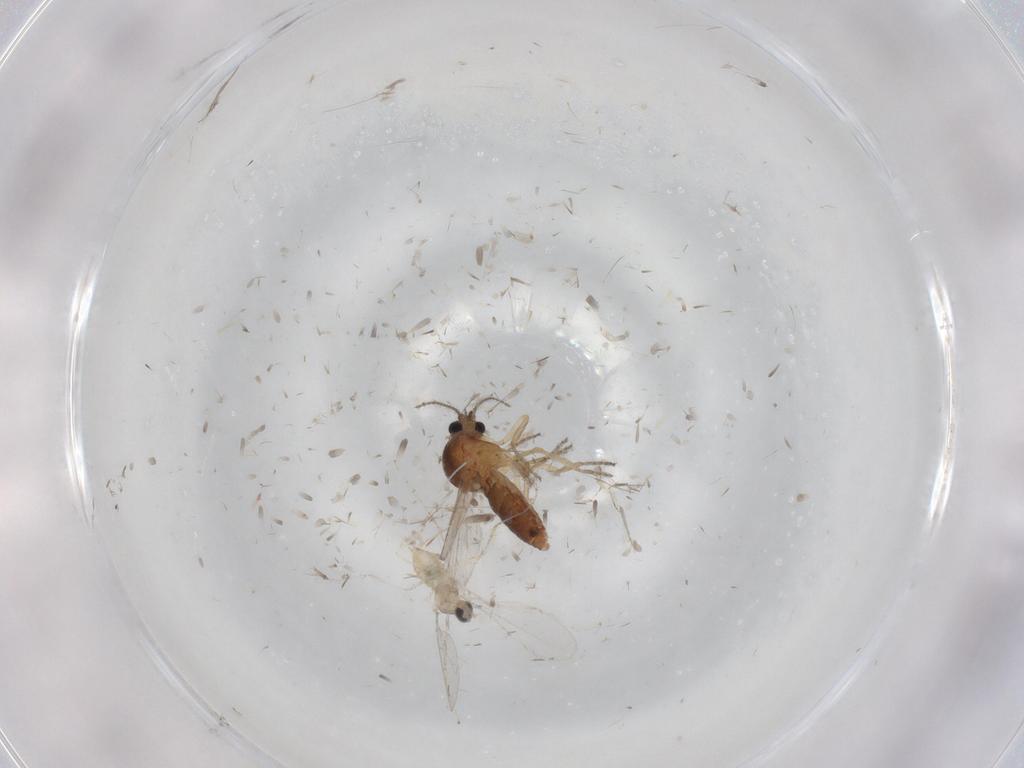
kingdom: Animalia
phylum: Arthropoda
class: Insecta
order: Diptera
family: Cecidomyiidae
